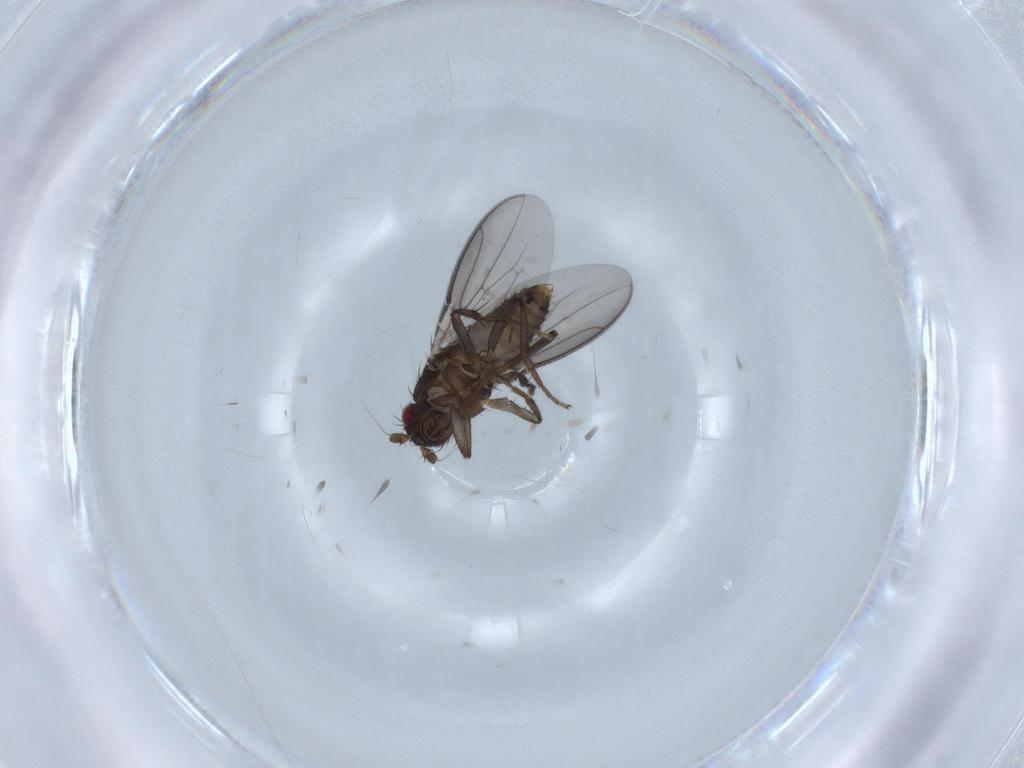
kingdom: Animalia
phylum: Arthropoda
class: Insecta
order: Diptera
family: Sphaeroceridae
